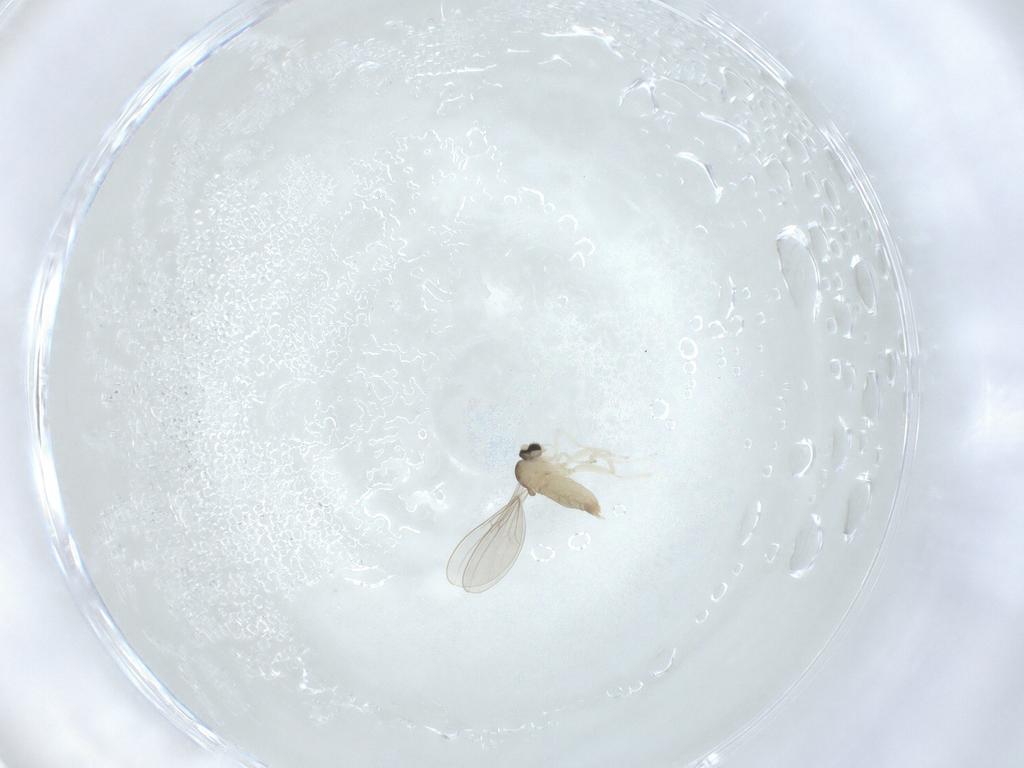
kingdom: Animalia
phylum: Arthropoda
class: Insecta
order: Diptera
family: Cecidomyiidae
